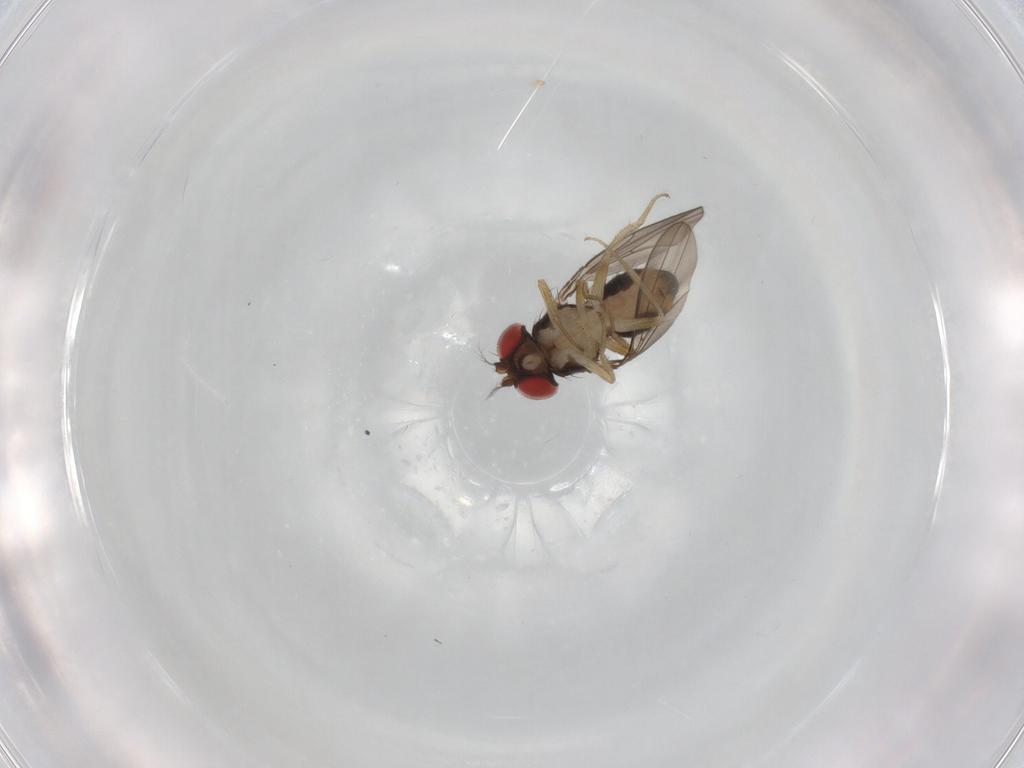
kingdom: Animalia
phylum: Arthropoda
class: Insecta
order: Diptera
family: Drosophilidae
